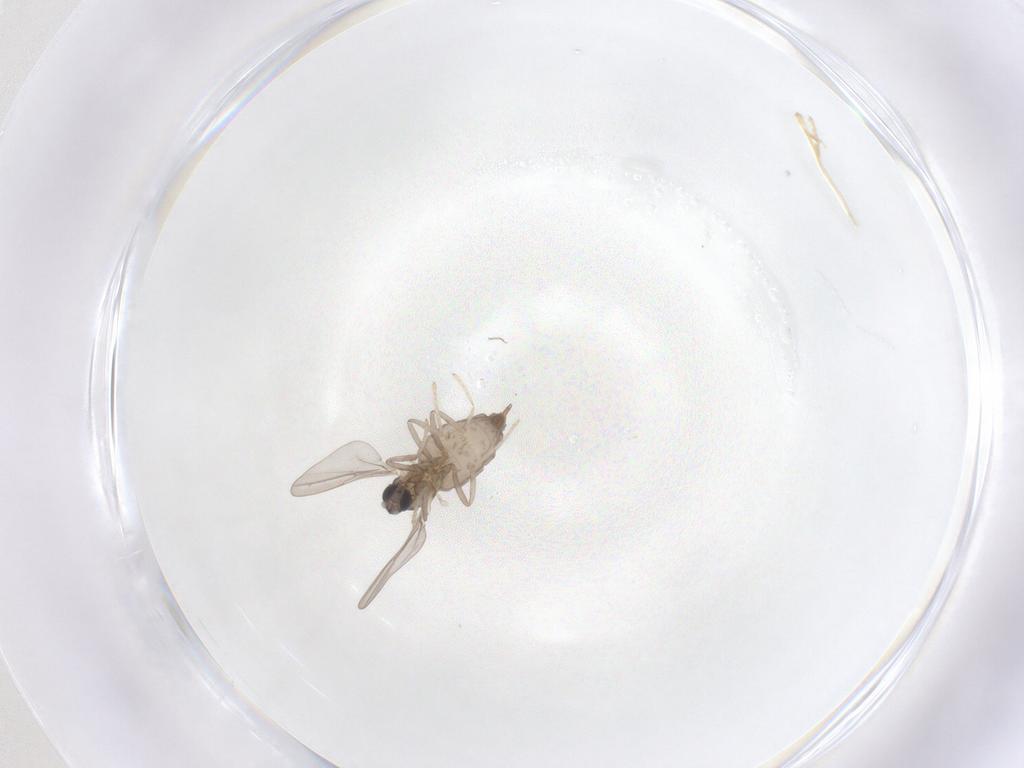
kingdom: Animalia
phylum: Arthropoda
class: Insecta
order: Diptera
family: Cecidomyiidae
